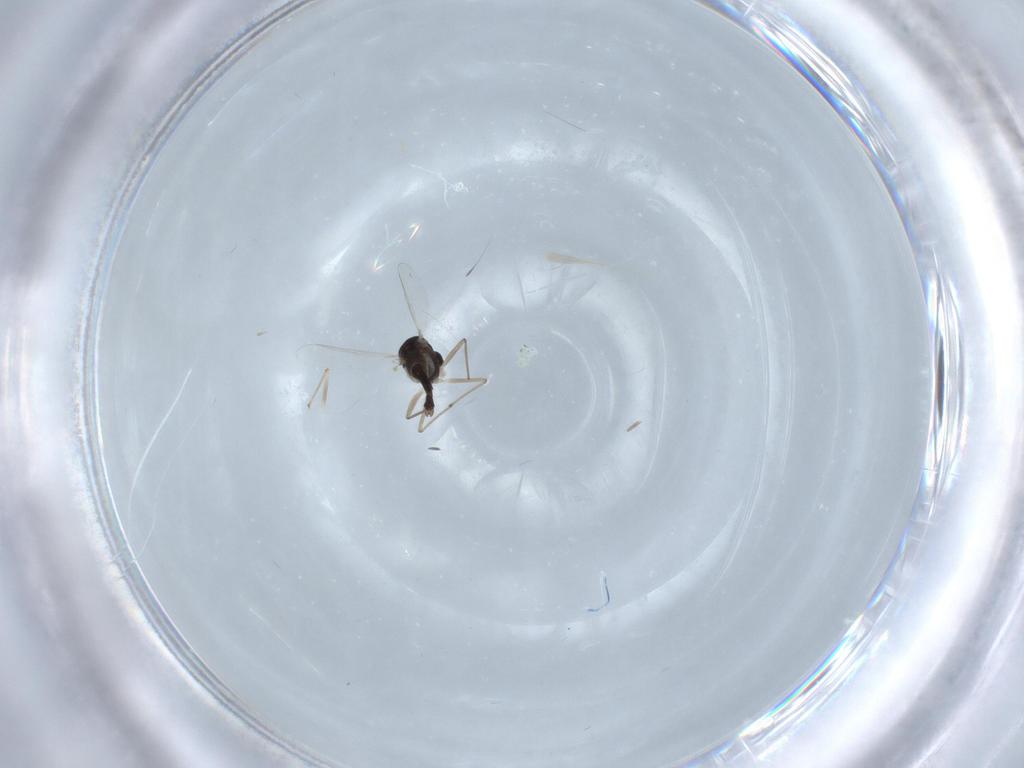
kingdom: Animalia
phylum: Arthropoda
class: Insecta
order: Diptera
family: Chironomidae
